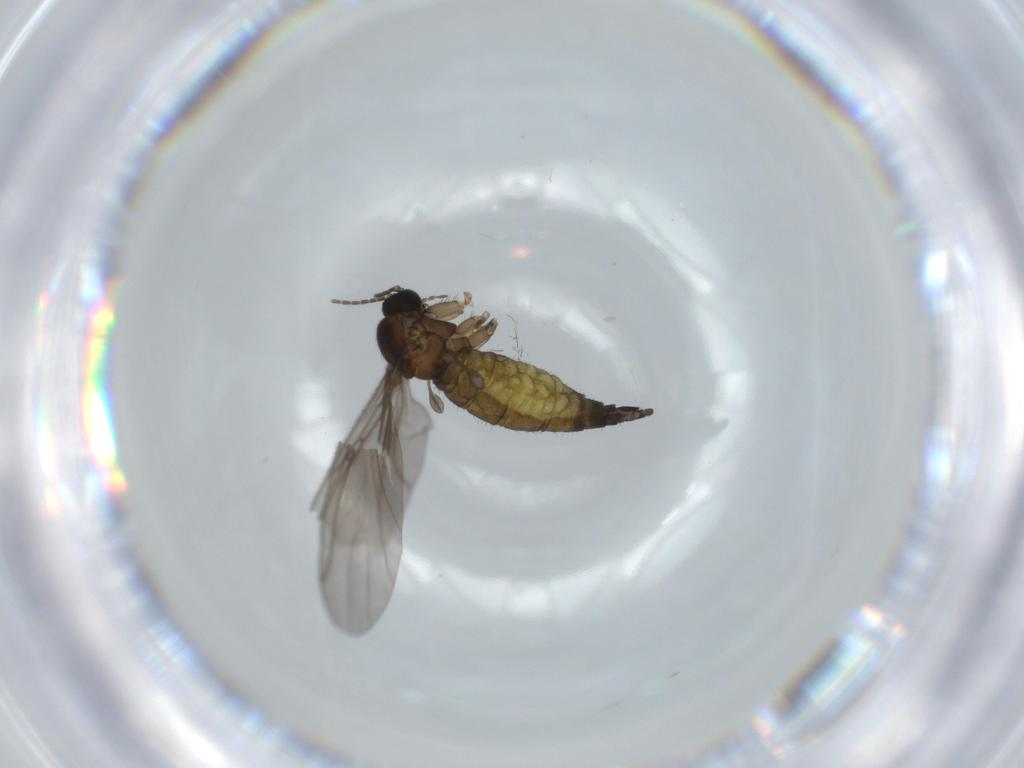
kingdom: Animalia
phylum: Arthropoda
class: Insecta
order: Diptera
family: Sciaridae
